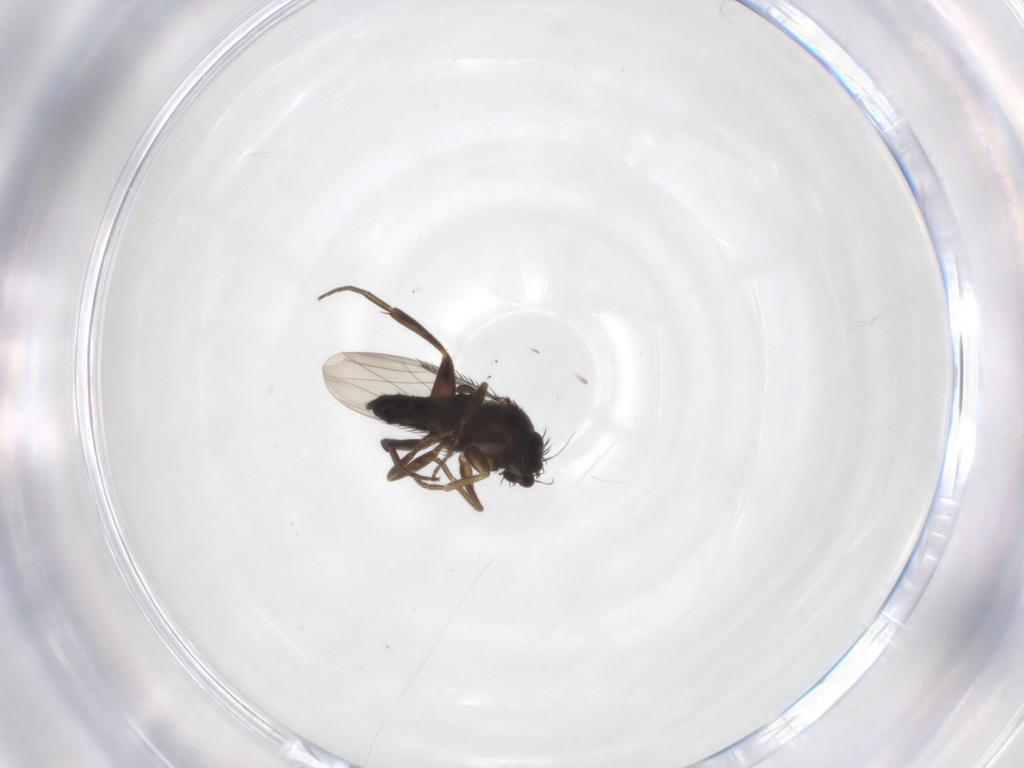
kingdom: Animalia
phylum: Arthropoda
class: Insecta
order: Diptera
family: Phoridae
